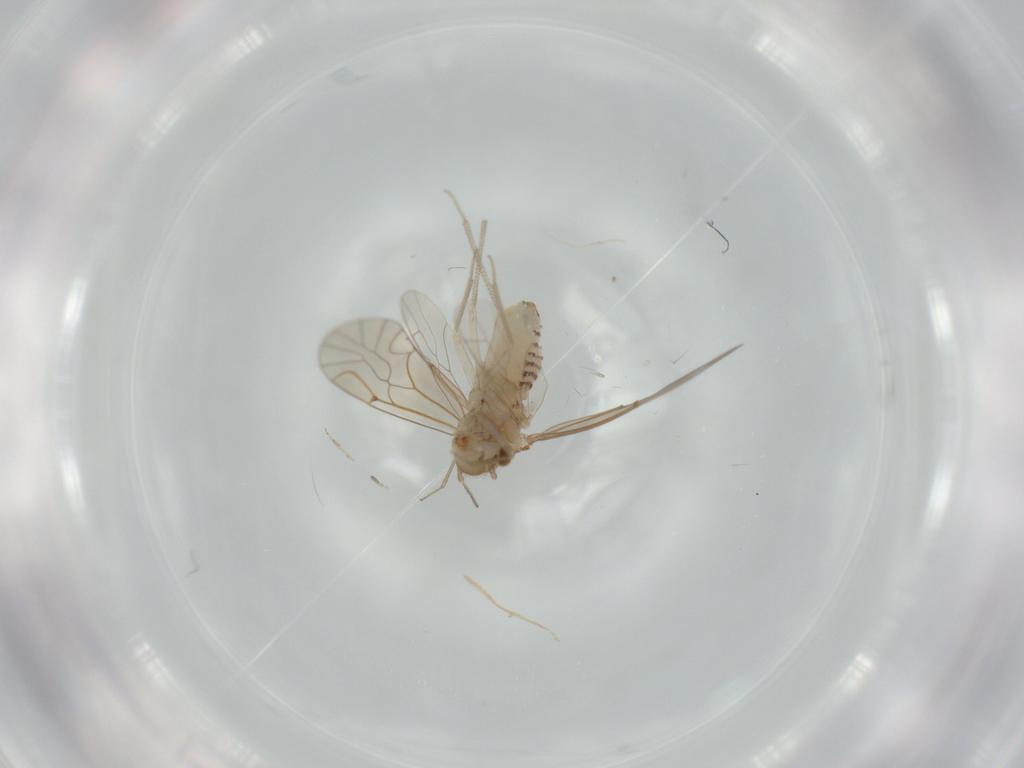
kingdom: Animalia
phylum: Arthropoda
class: Insecta
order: Psocodea
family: Lachesillidae
